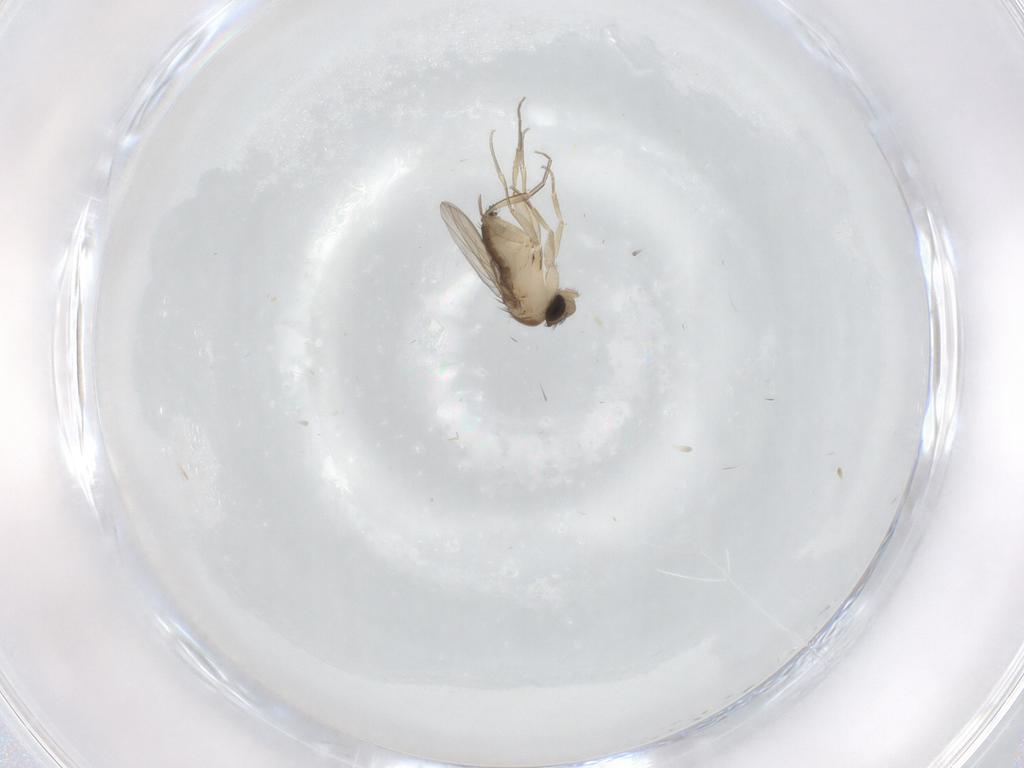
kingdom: Animalia
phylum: Arthropoda
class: Insecta
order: Diptera
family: Phoridae
